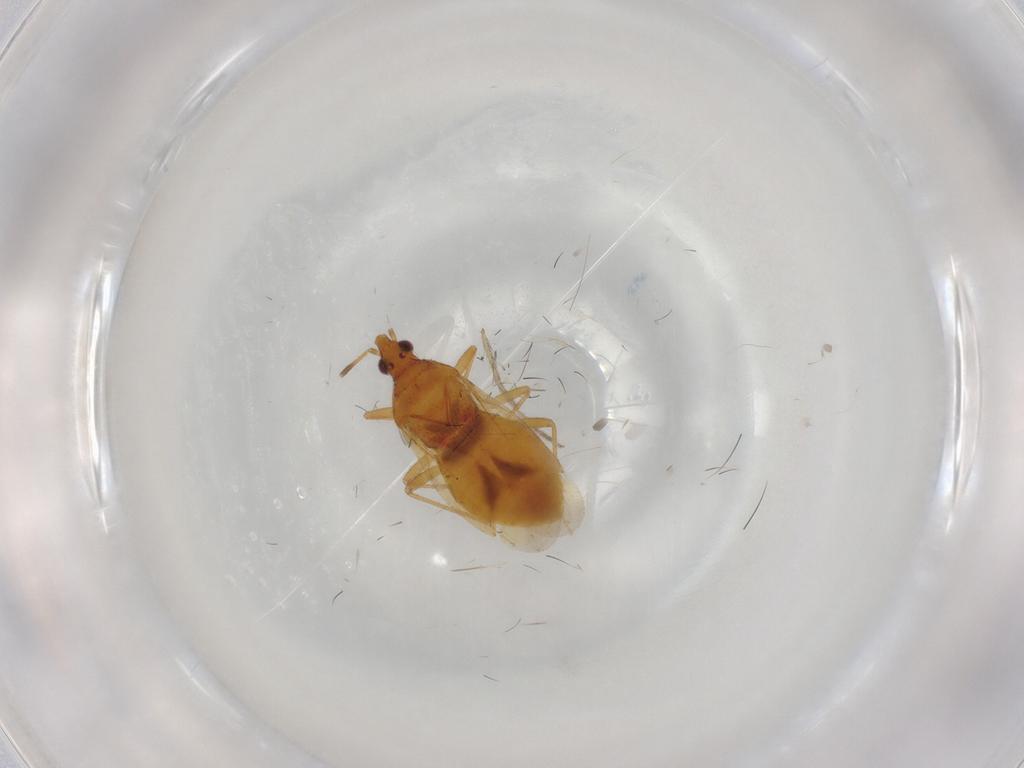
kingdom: Animalia
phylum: Arthropoda
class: Insecta
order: Hemiptera
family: Anthocoridae
